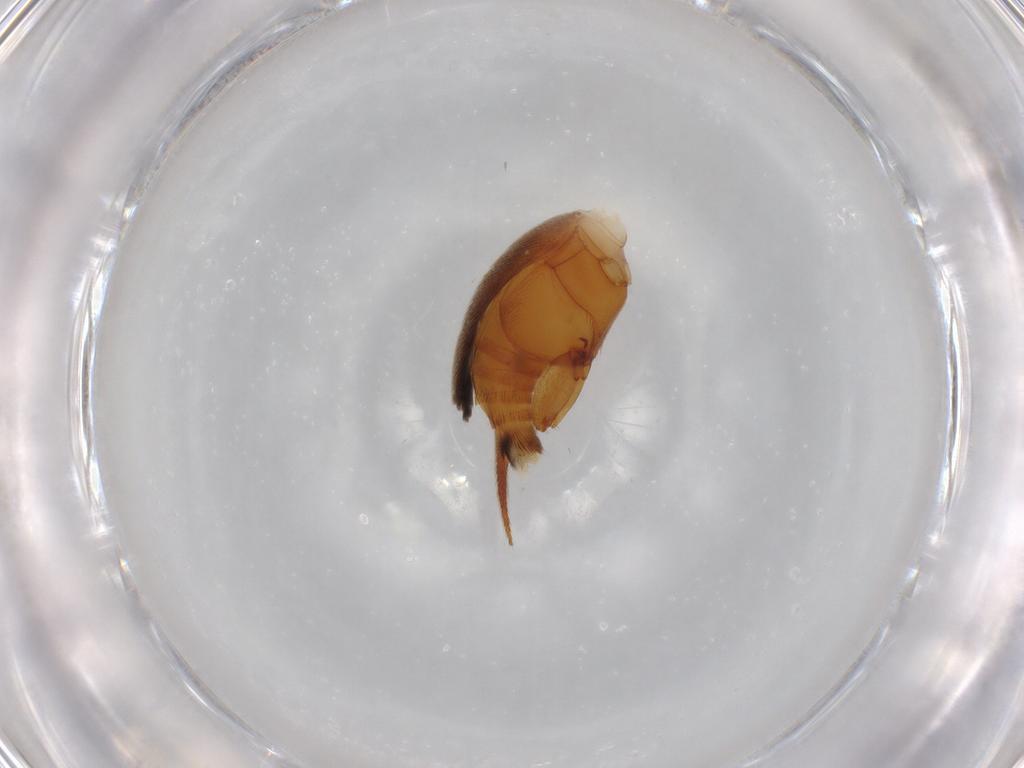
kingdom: Animalia
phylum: Arthropoda
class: Insecta
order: Coleoptera
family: Mordellidae
